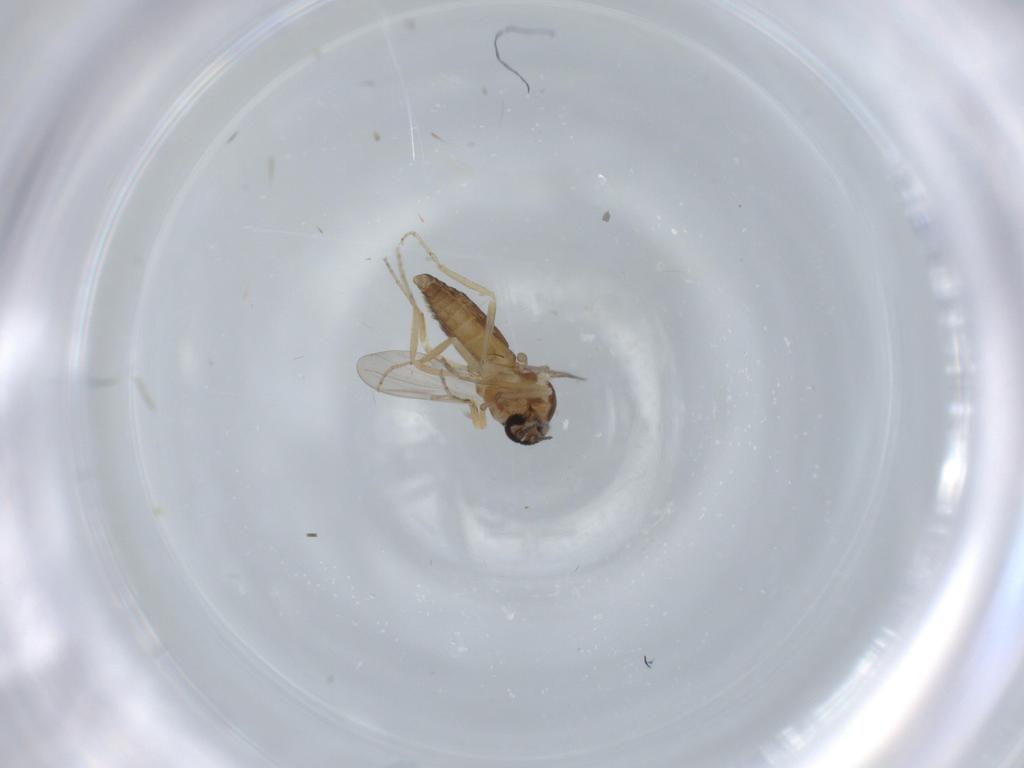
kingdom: Animalia
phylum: Arthropoda
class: Insecta
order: Diptera
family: Ceratopogonidae
